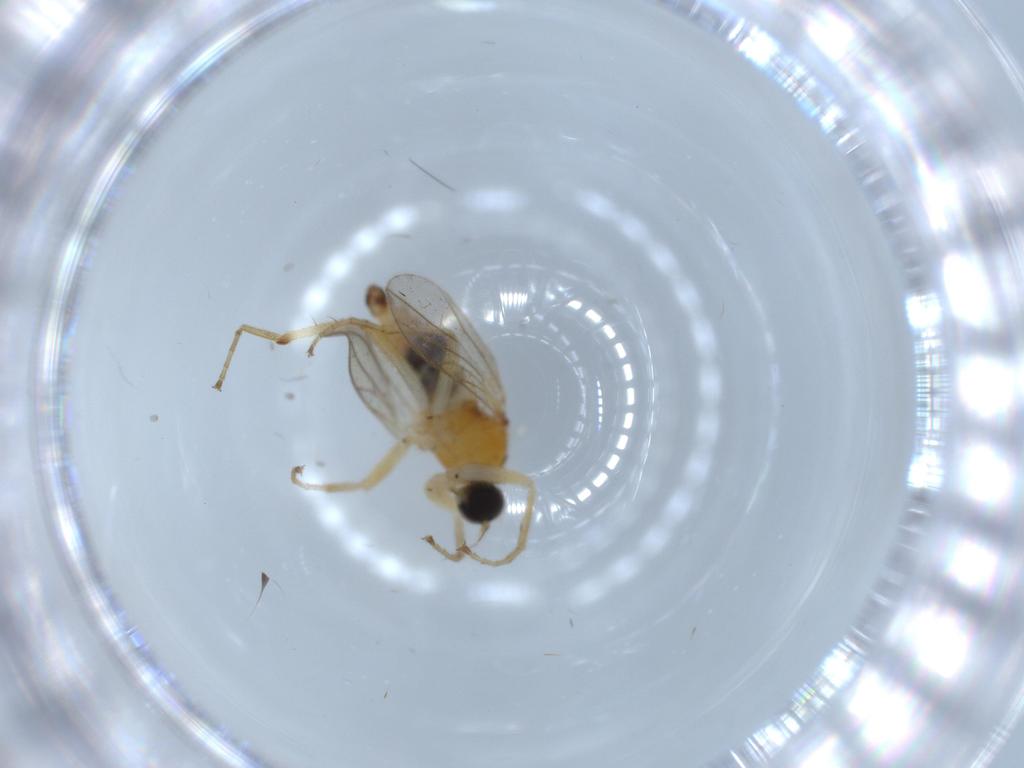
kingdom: Animalia
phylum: Arthropoda
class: Insecta
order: Diptera
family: Hybotidae
